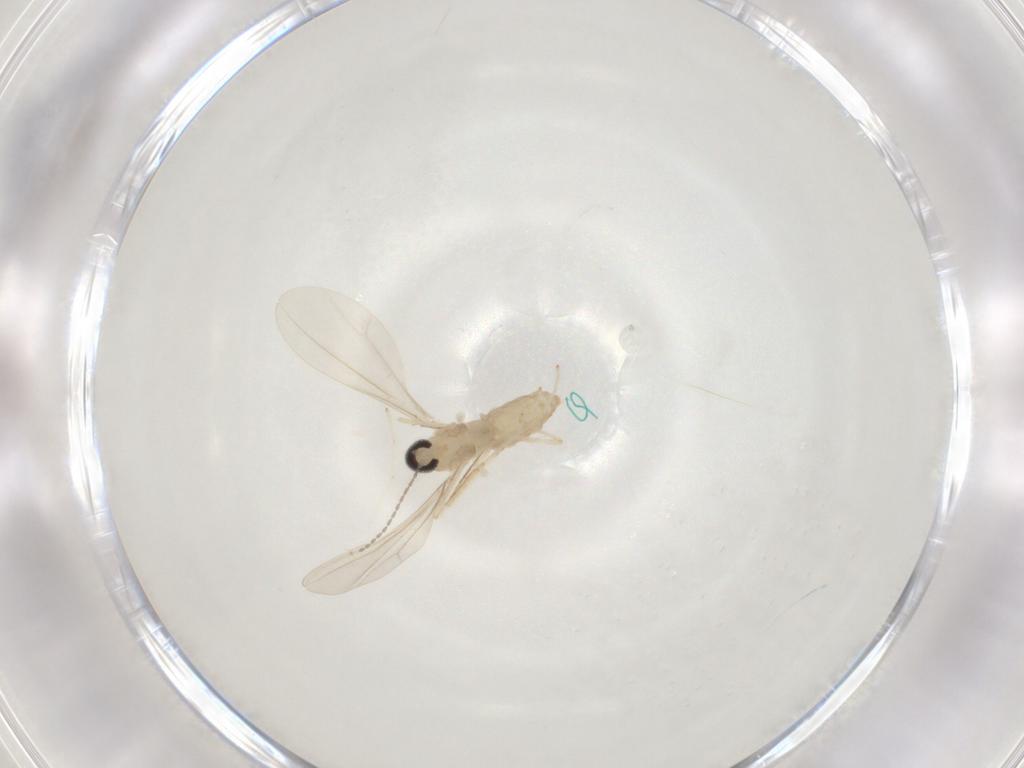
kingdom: Animalia
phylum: Arthropoda
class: Insecta
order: Diptera
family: Cecidomyiidae
